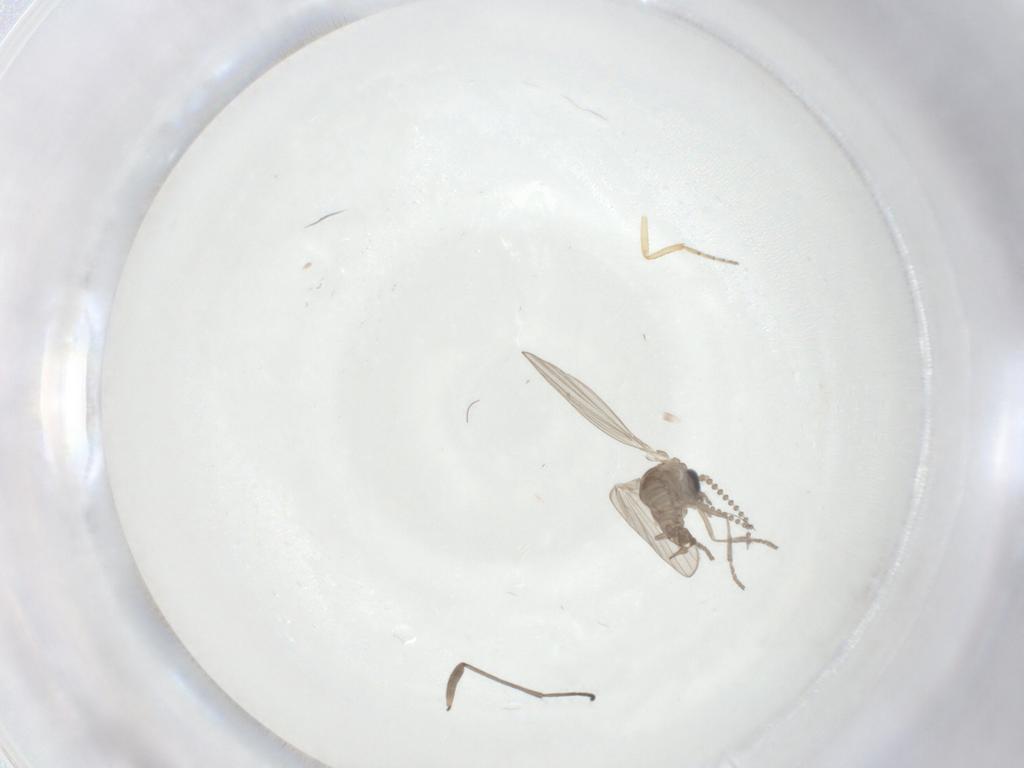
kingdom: Animalia
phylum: Arthropoda
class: Insecta
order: Diptera
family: Psychodidae
